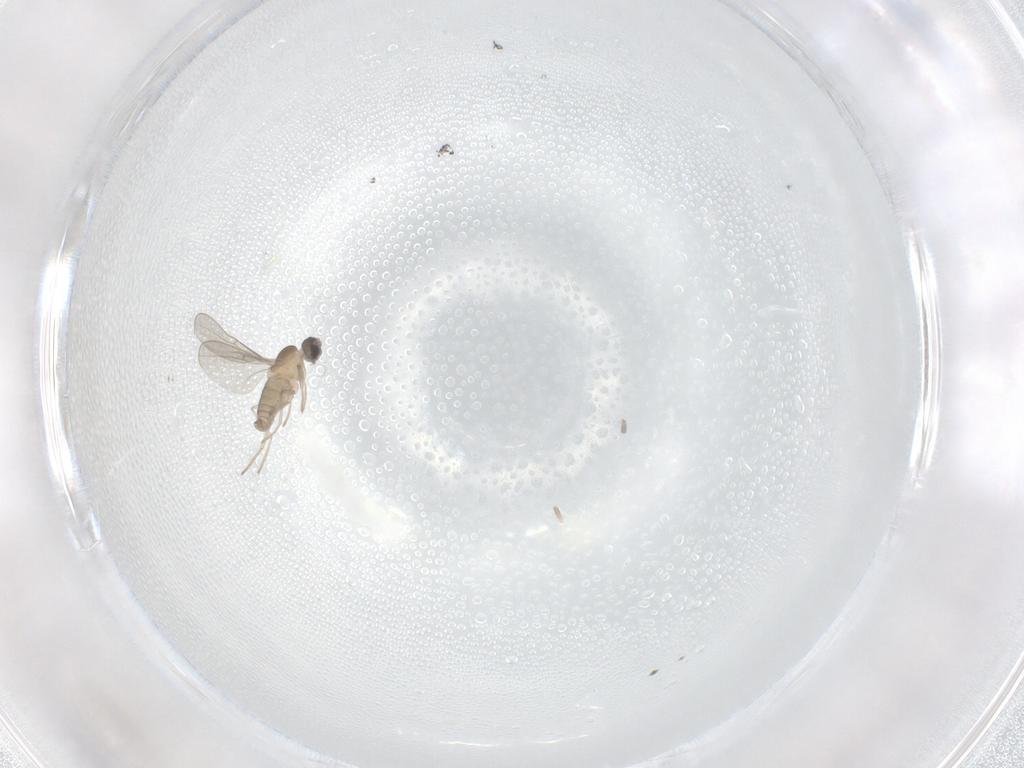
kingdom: Animalia
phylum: Arthropoda
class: Insecta
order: Diptera
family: Cecidomyiidae
